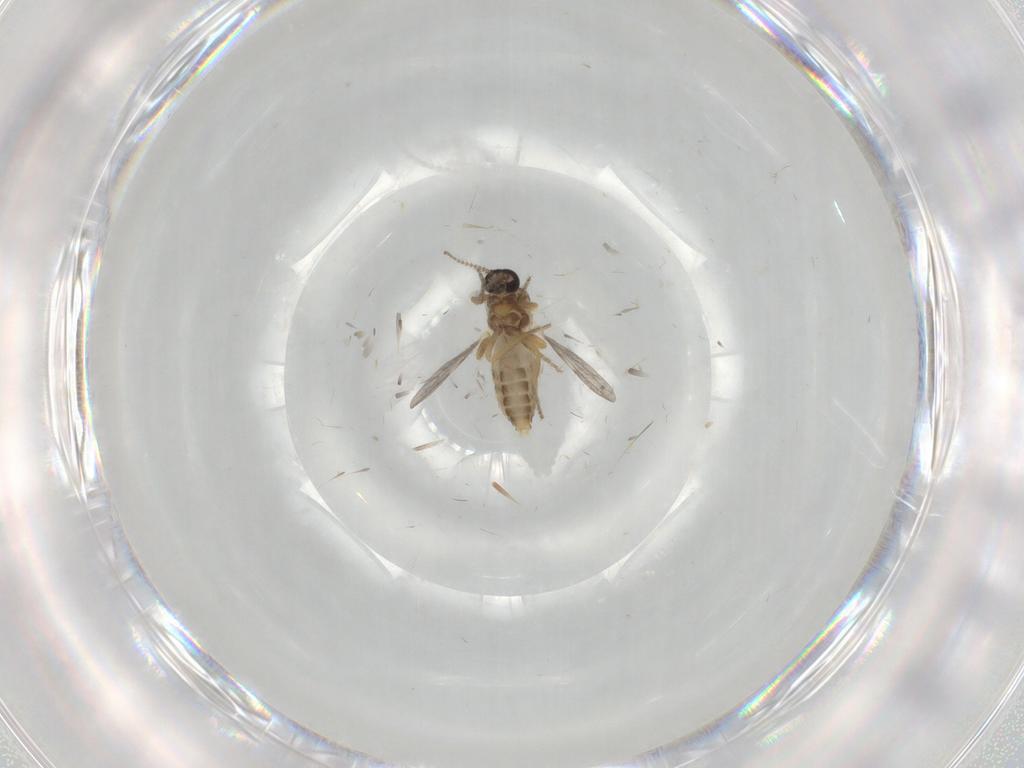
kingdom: Animalia
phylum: Arthropoda
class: Insecta
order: Diptera
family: Ceratopogonidae
